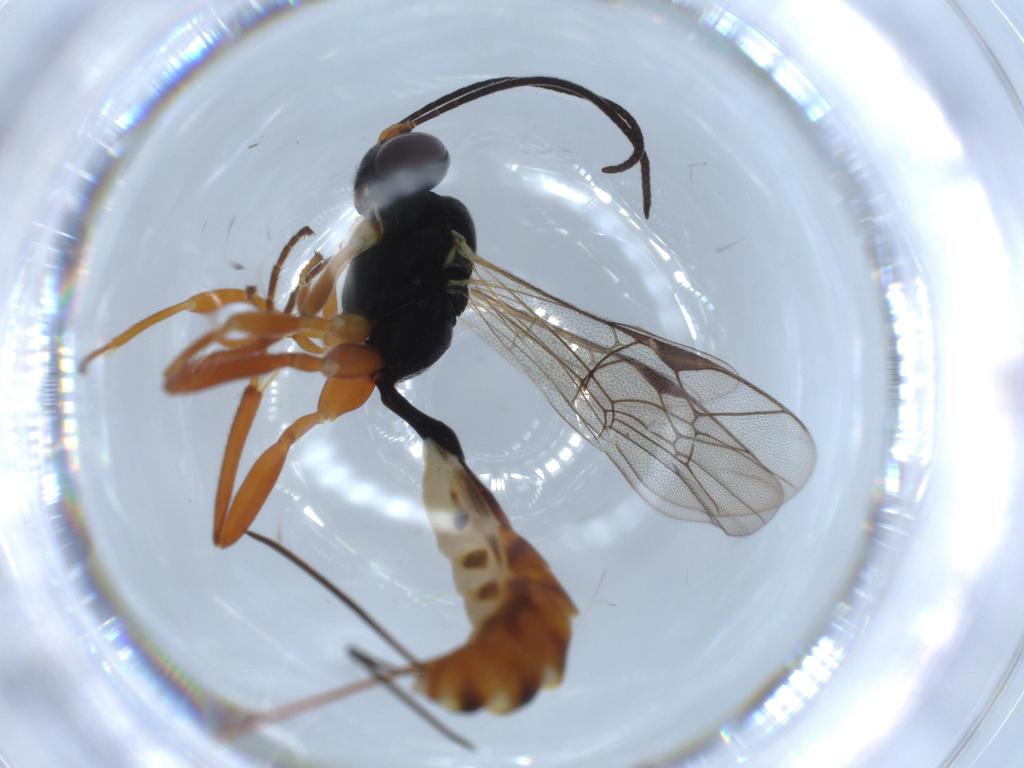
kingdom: Animalia
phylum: Arthropoda
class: Insecta
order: Hymenoptera
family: Ichneumonidae
